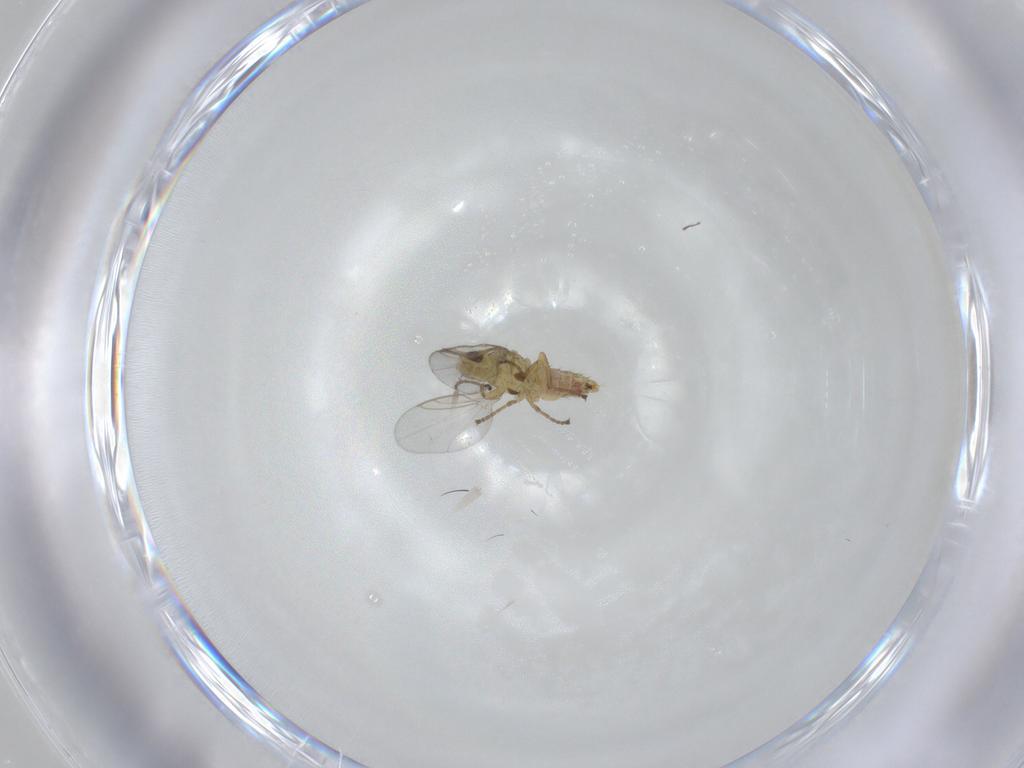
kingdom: Animalia
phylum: Arthropoda
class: Insecta
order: Diptera
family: Agromyzidae
